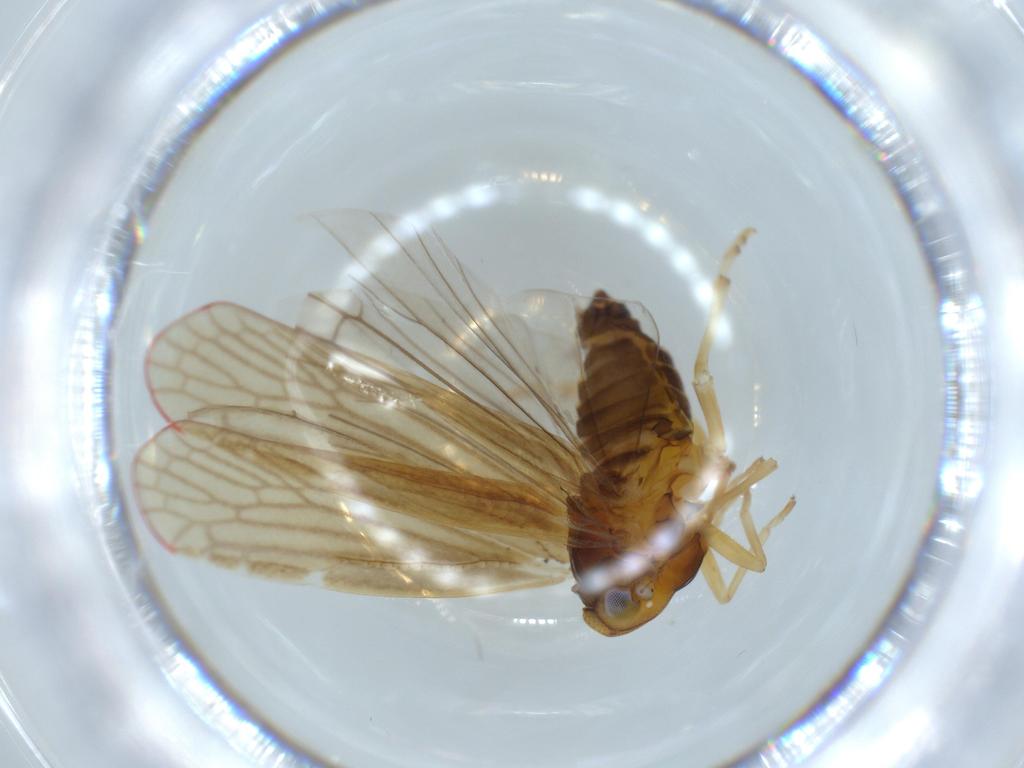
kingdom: Animalia
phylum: Arthropoda
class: Insecta
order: Hemiptera
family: Derbidae
